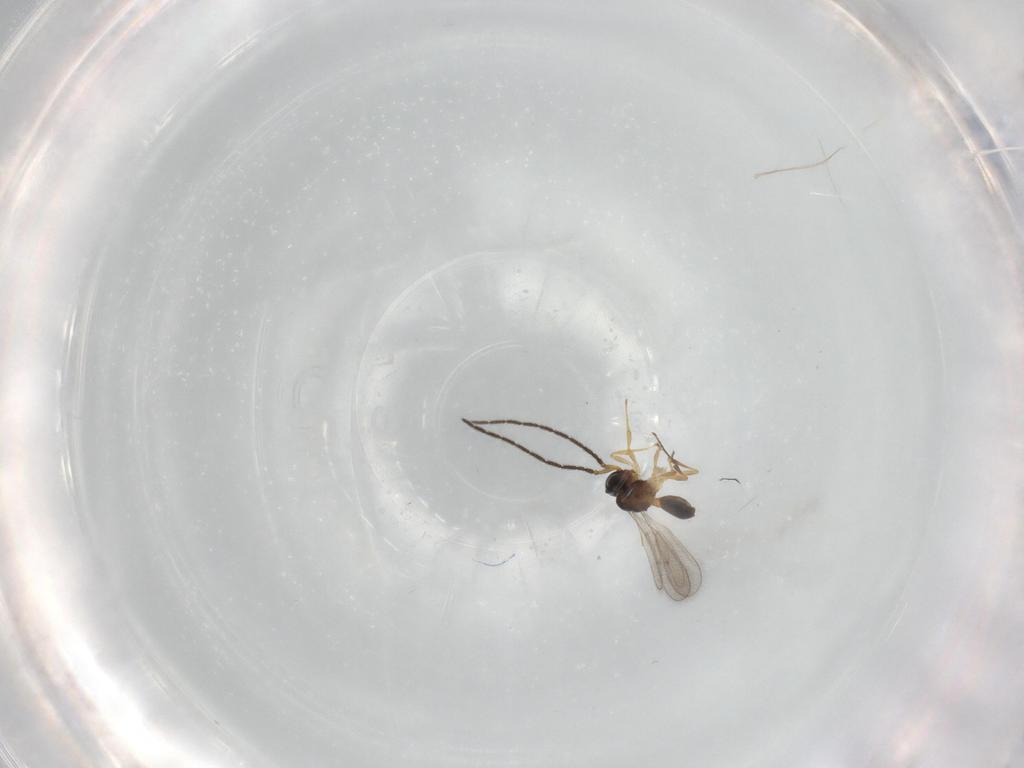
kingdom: Animalia
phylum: Arthropoda
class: Insecta
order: Hymenoptera
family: Scelionidae
